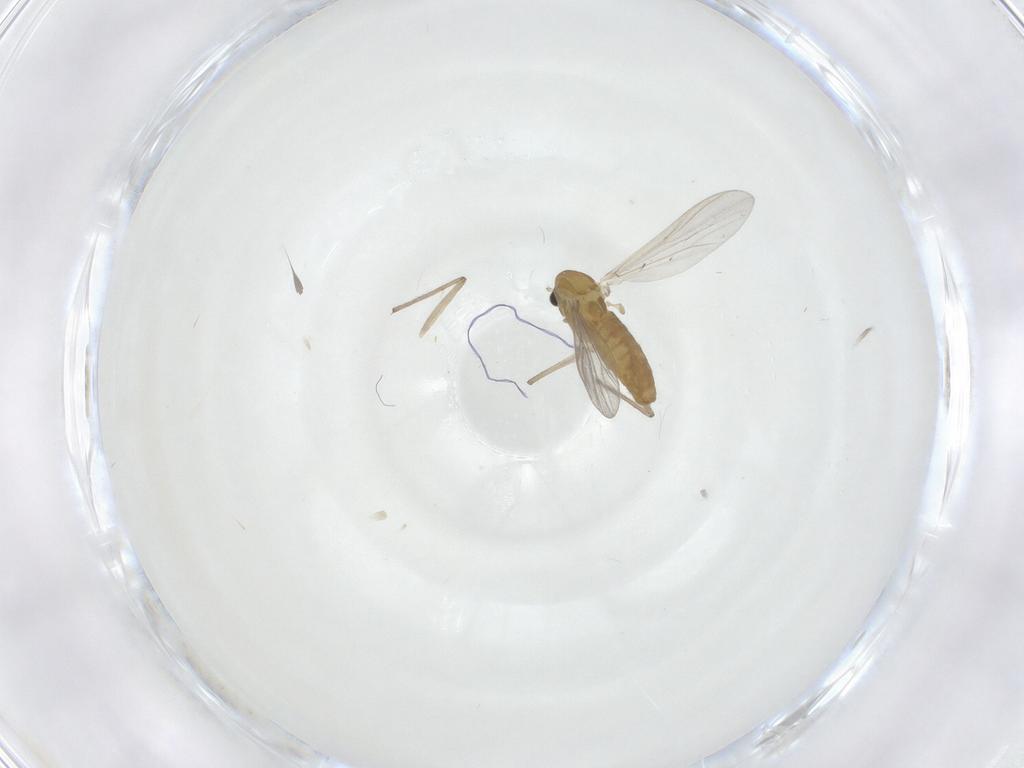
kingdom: Animalia
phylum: Arthropoda
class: Insecta
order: Diptera
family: Chironomidae
